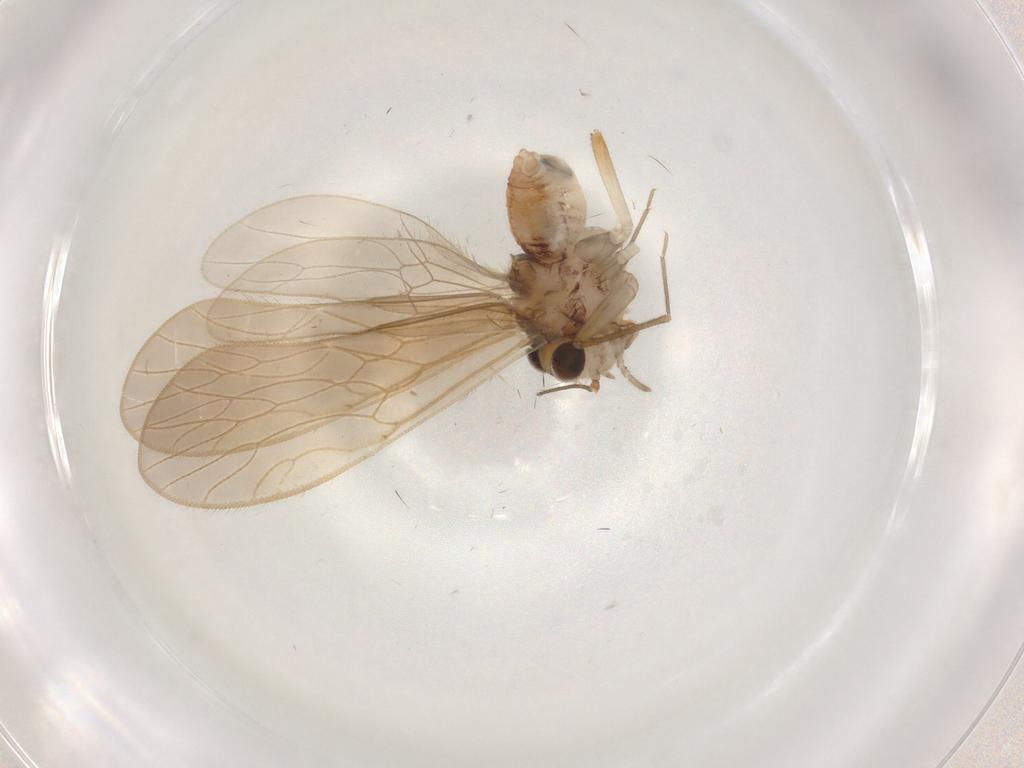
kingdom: Animalia
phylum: Arthropoda
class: Insecta
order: Psocodea
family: Mesopsocidae
